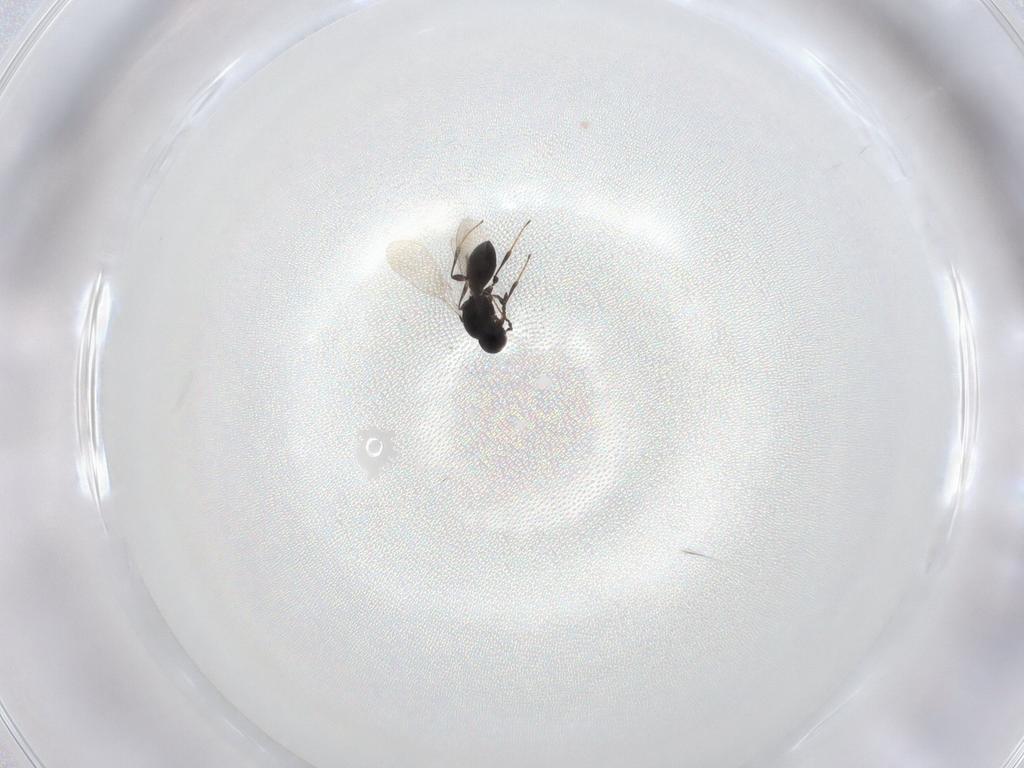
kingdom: Animalia
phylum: Arthropoda
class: Insecta
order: Hymenoptera
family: Platygastridae
